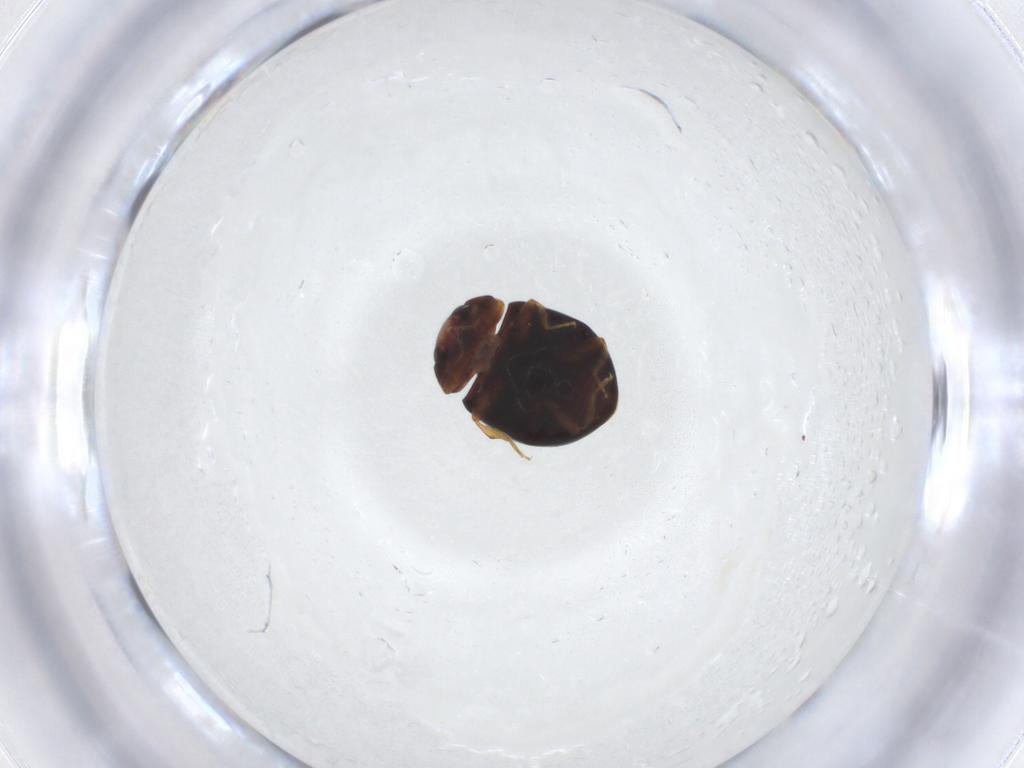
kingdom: Animalia
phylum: Arthropoda
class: Insecta
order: Coleoptera
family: Coccinellidae
